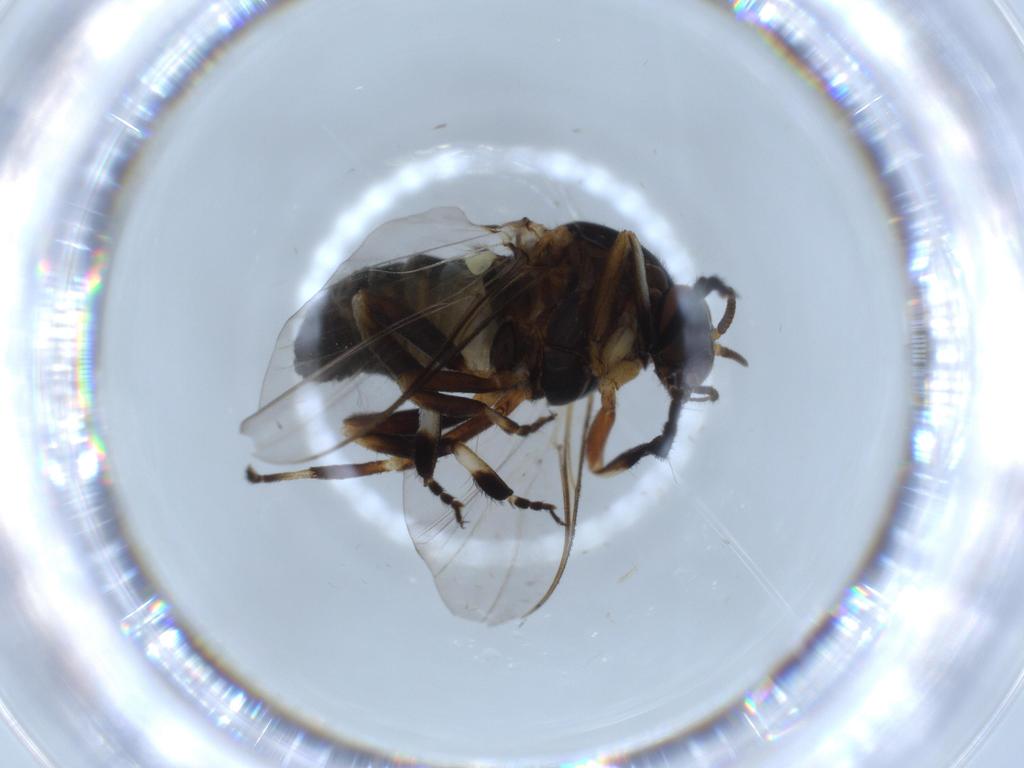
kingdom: Animalia
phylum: Arthropoda
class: Insecta
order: Diptera
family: Phoridae
